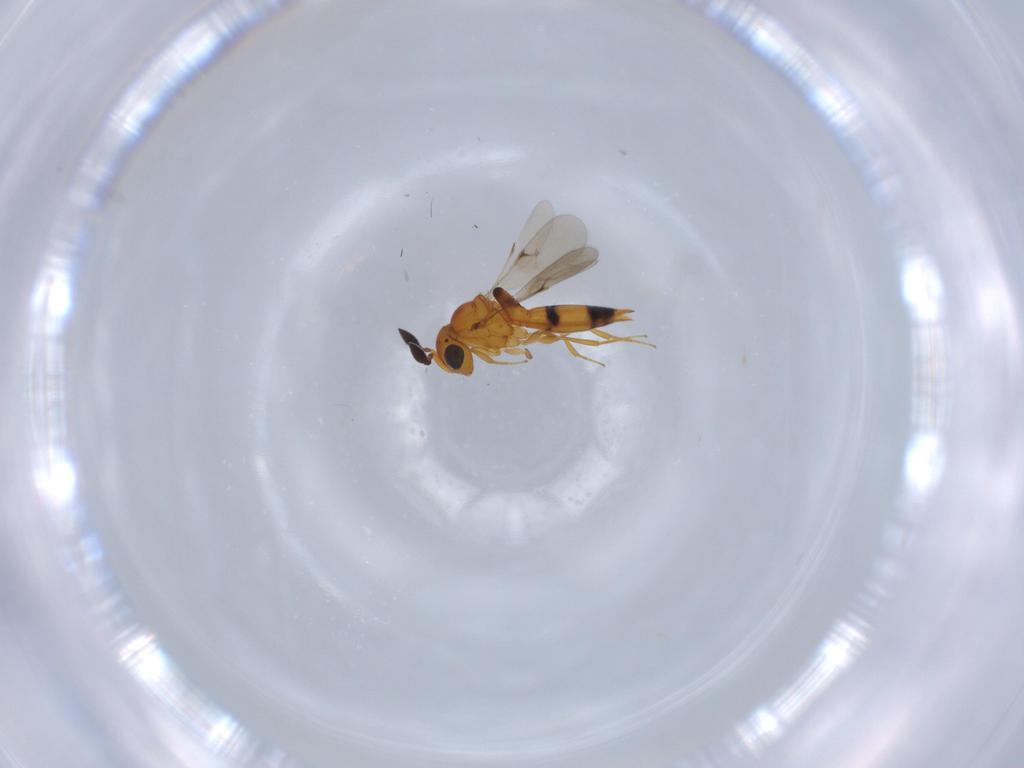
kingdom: Animalia
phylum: Arthropoda
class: Insecta
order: Hymenoptera
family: Scelionidae
